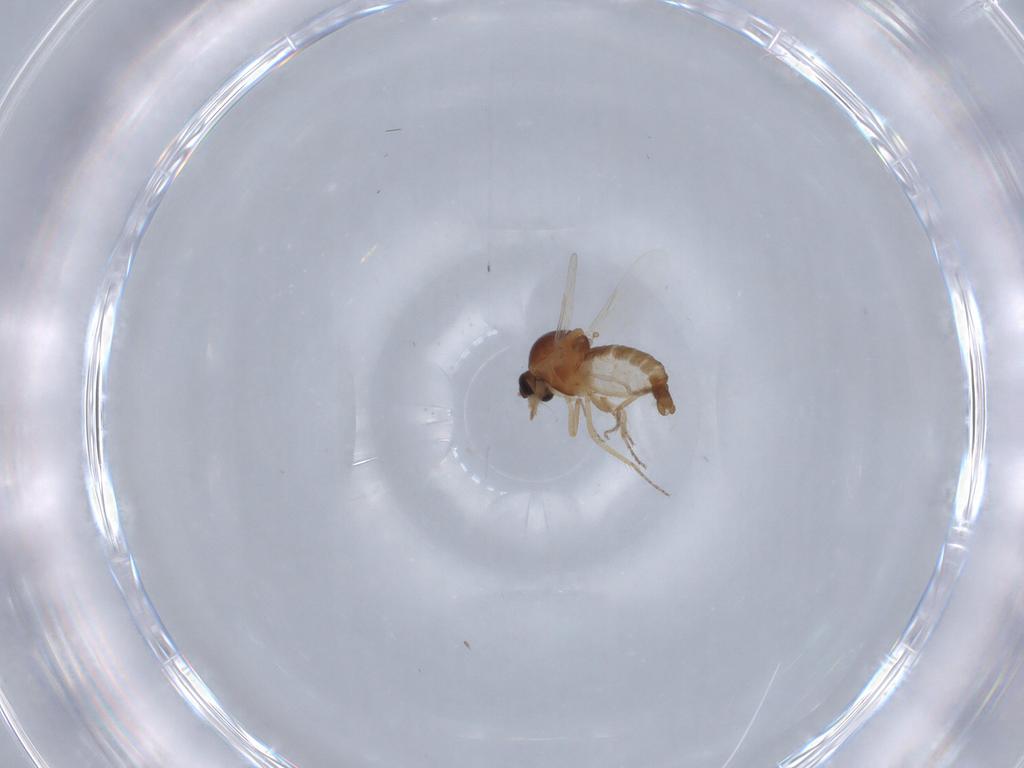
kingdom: Animalia
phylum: Arthropoda
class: Insecta
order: Diptera
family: Ceratopogonidae
